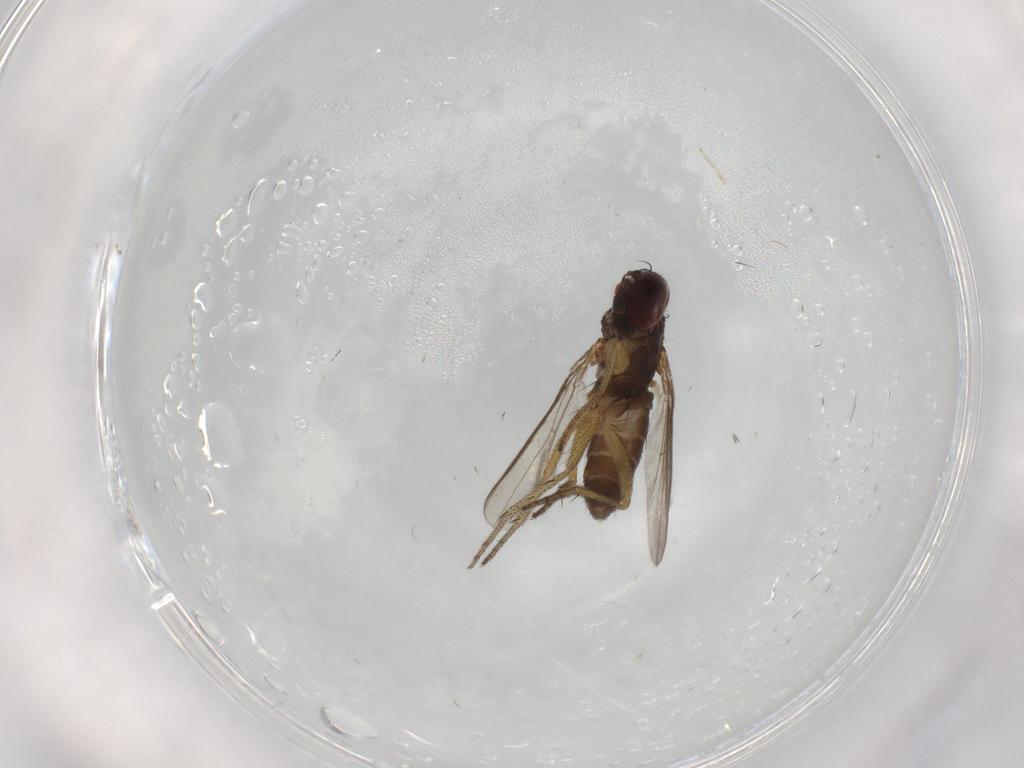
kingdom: Animalia
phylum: Arthropoda
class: Insecta
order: Diptera
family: Dolichopodidae
